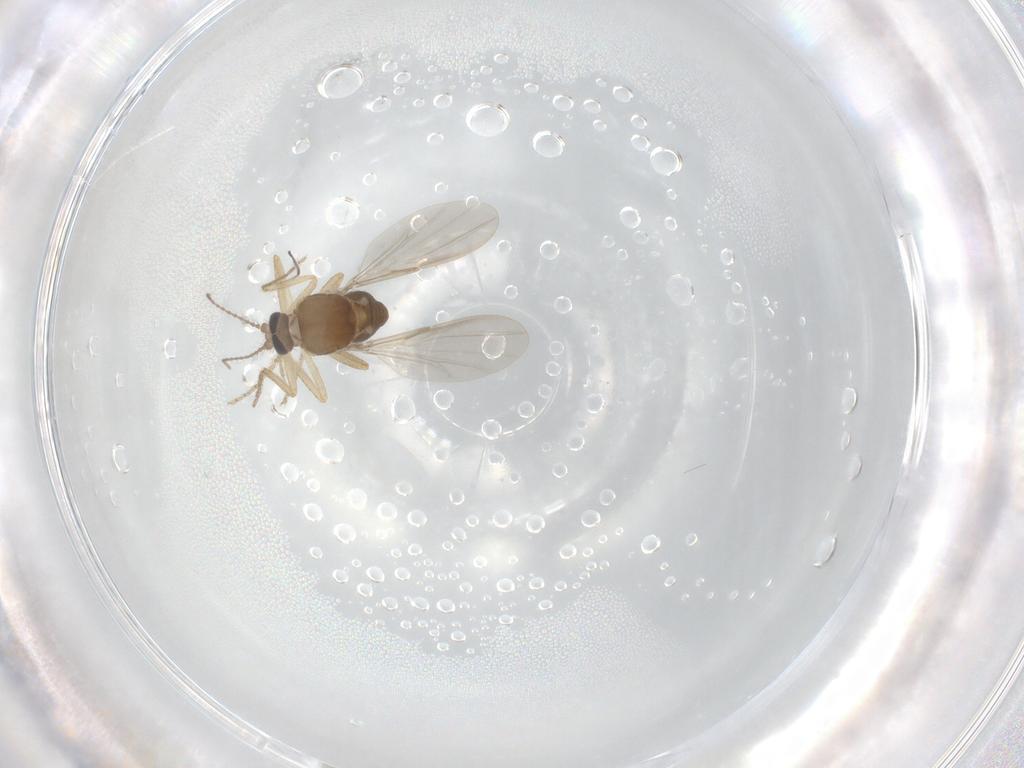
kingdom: Animalia
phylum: Arthropoda
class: Insecta
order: Diptera
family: Ceratopogonidae
